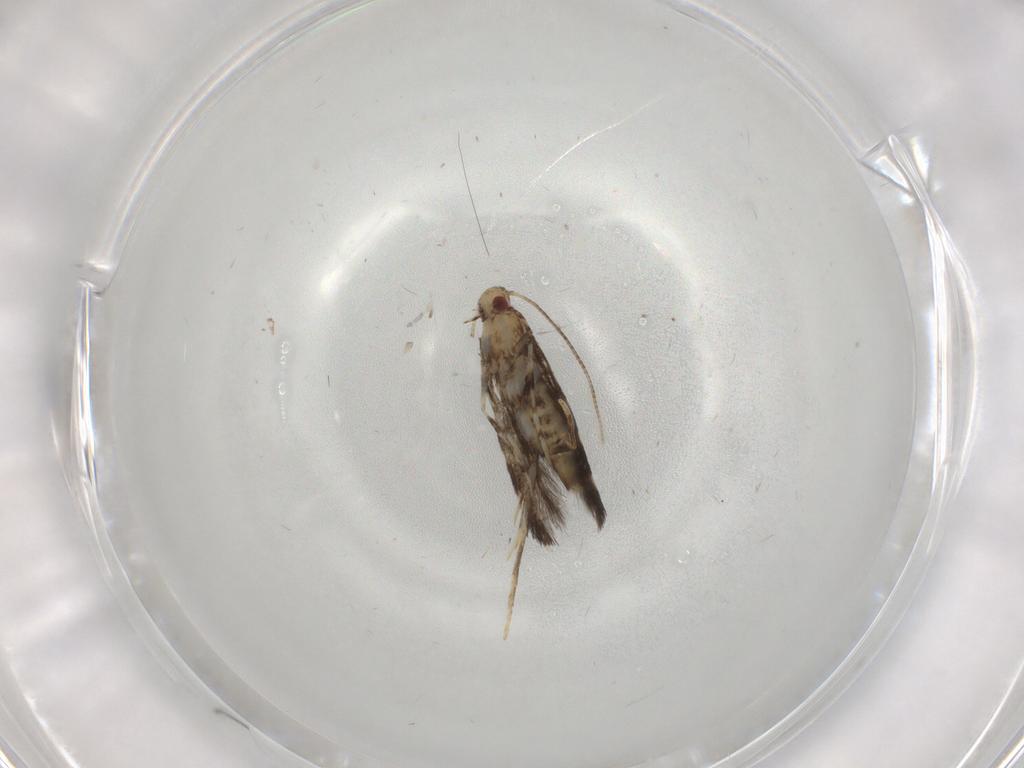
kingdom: Animalia
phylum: Arthropoda
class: Insecta
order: Lepidoptera
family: Gracillariidae
